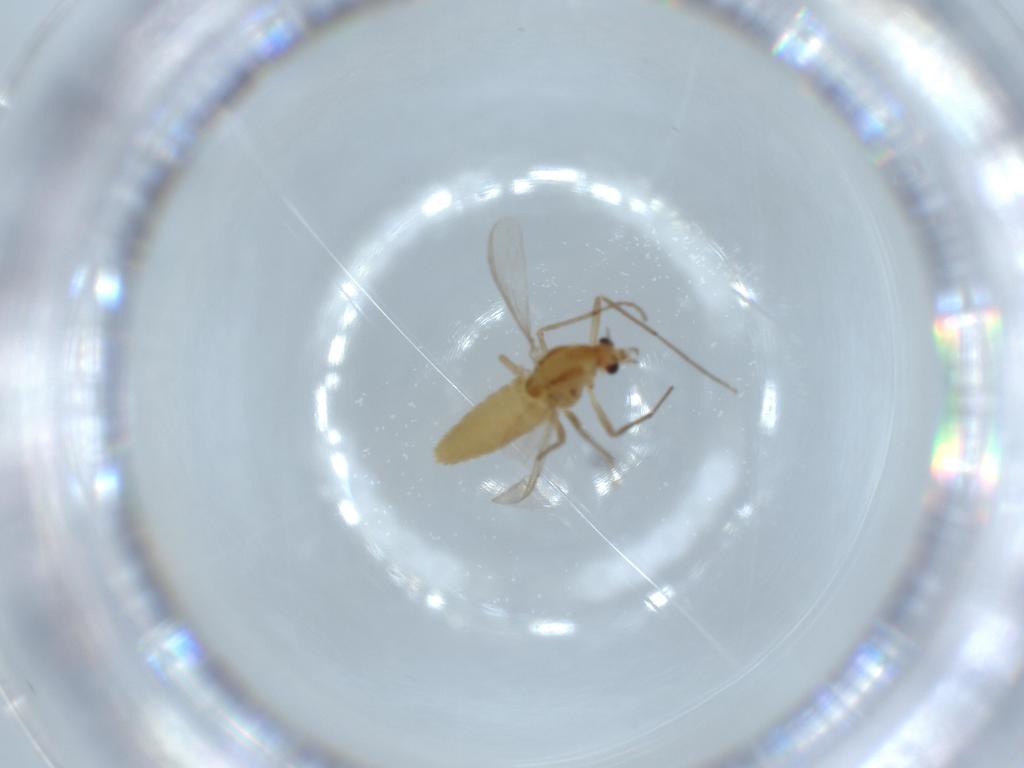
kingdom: Animalia
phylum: Arthropoda
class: Insecta
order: Diptera
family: Chironomidae
